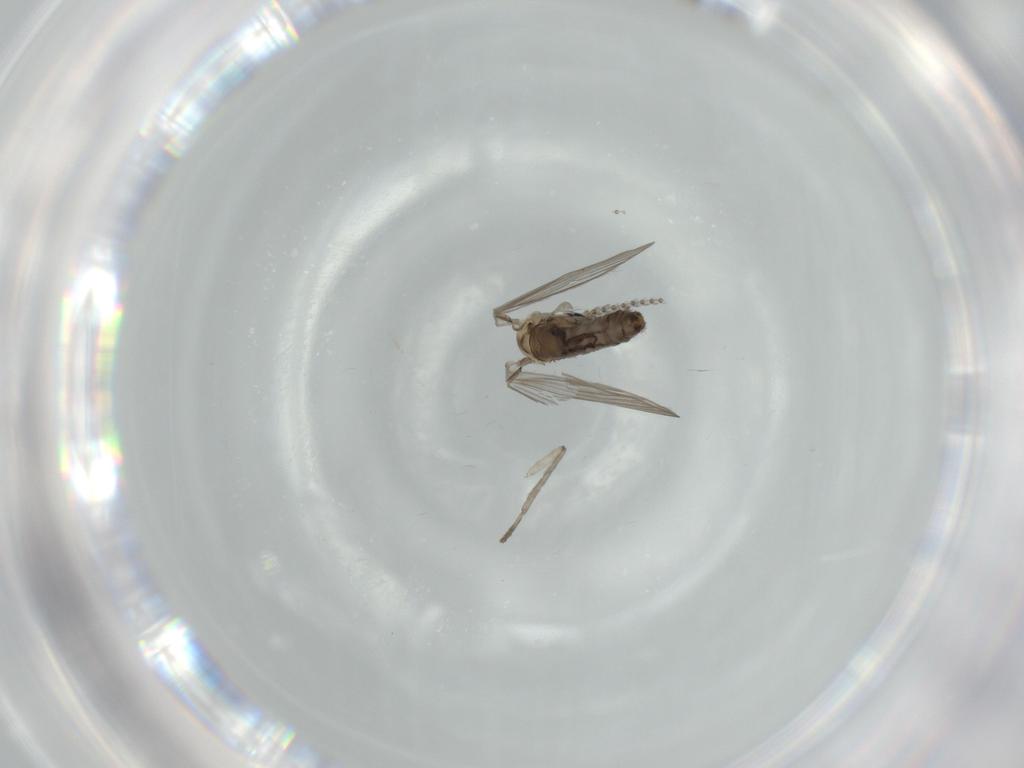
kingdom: Animalia
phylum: Arthropoda
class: Insecta
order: Diptera
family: Psychodidae
